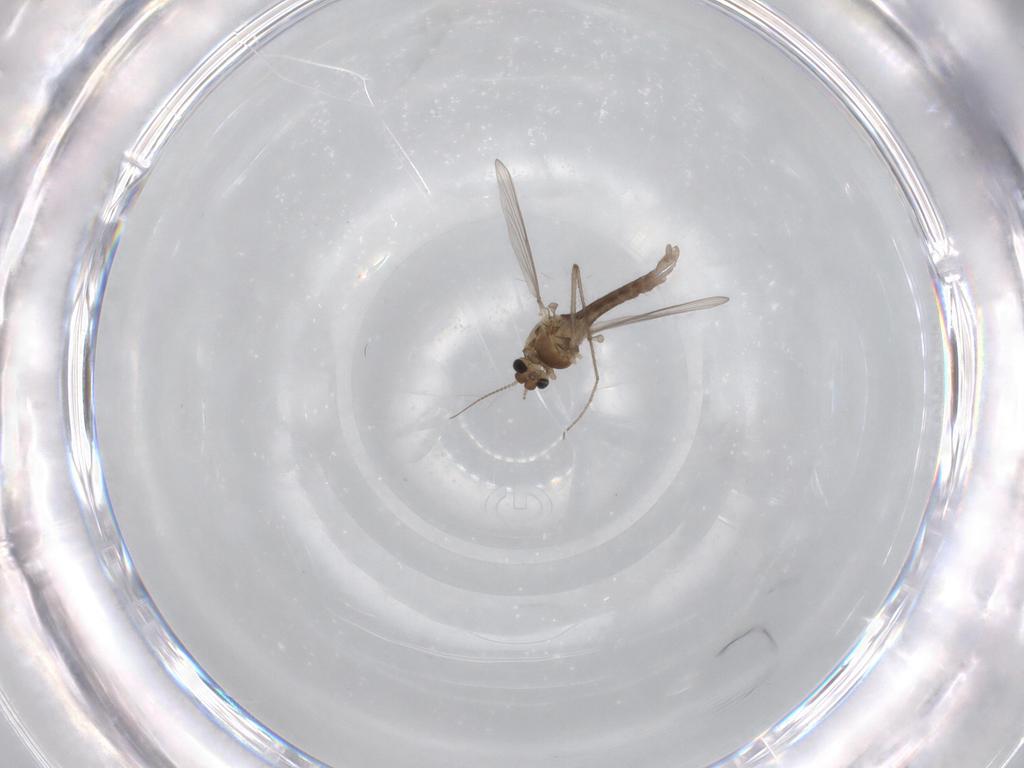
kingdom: Animalia
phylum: Arthropoda
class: Insecta
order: Diptera
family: Chironomidae
